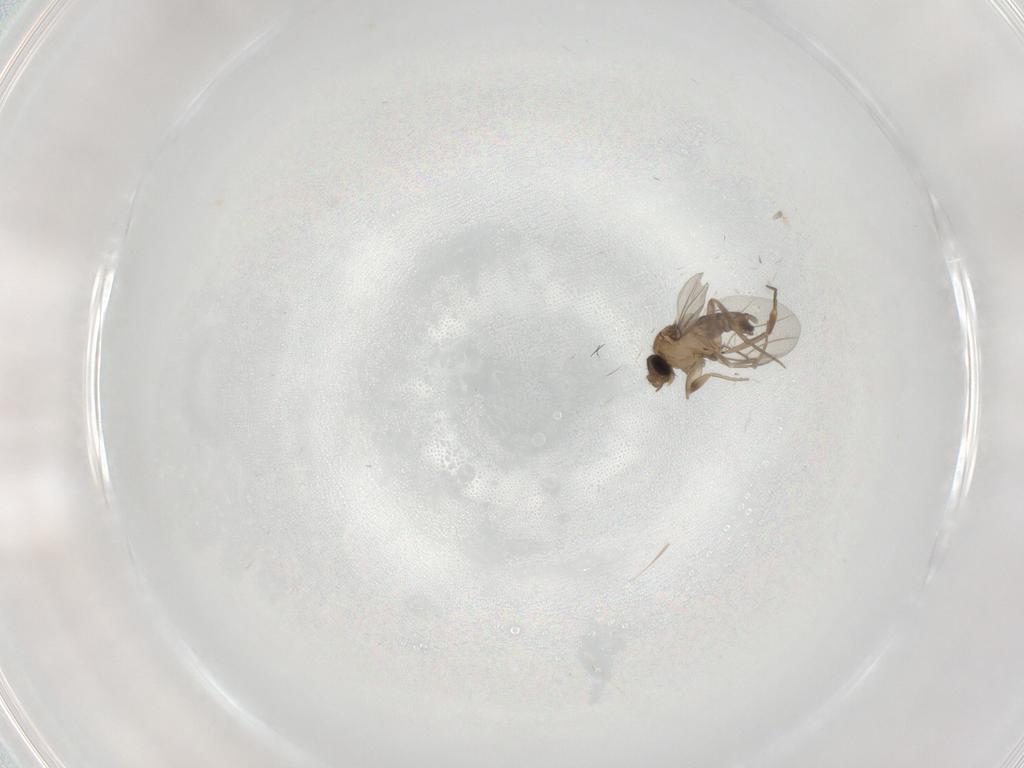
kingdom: Animalia
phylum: Arthropoda
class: Insecta
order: Diptera
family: Phoridae
